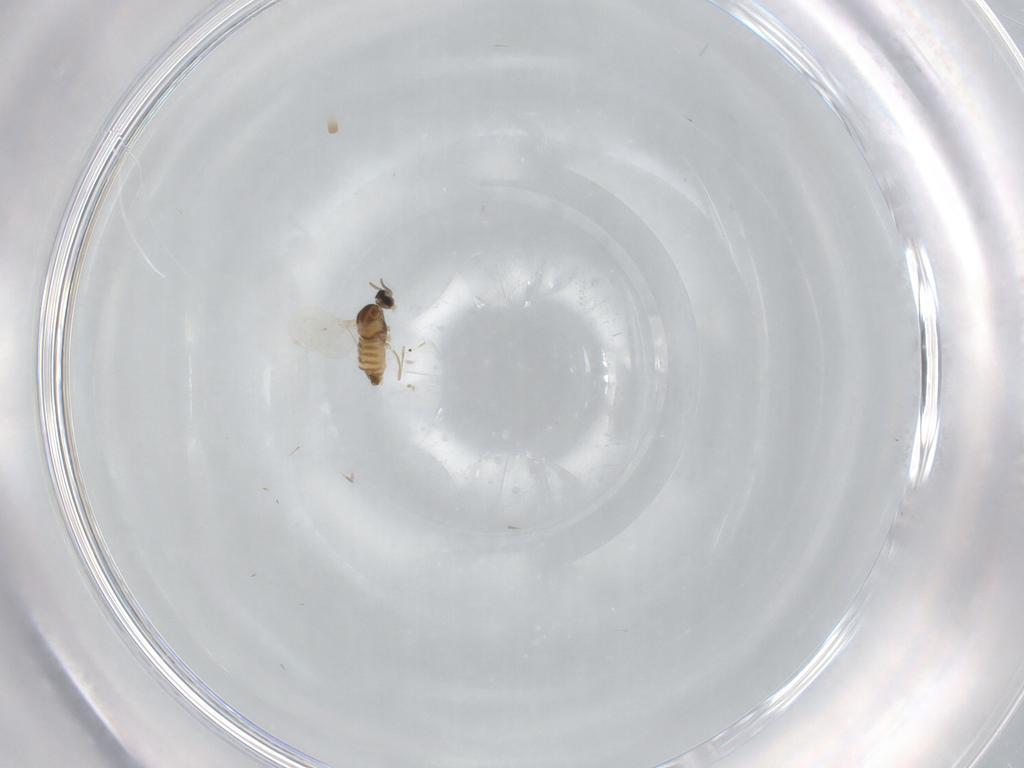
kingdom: Animalia
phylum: Arthropoda
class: Insecta
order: Diptera
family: Cecidomyiidae
